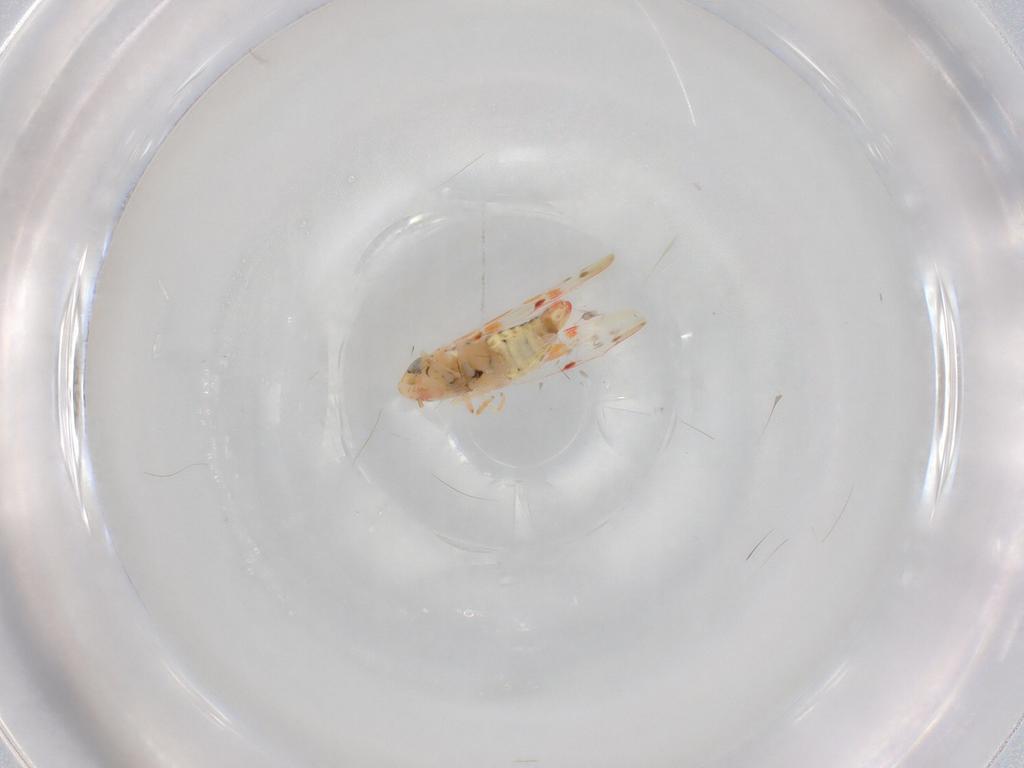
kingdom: Animalia
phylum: Arthropoda
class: Insecta
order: Hemiptera
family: Cicadellidae
